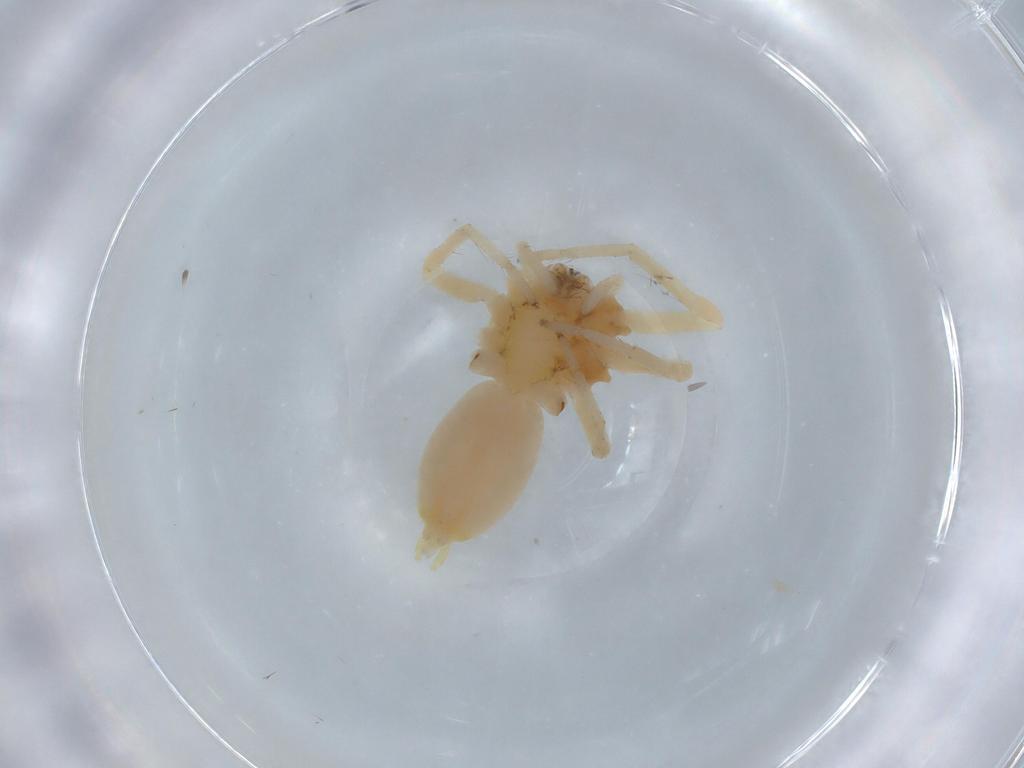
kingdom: Animalia
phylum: Arthropoda
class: Arachnida
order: Araneae
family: Anyphaenidae
